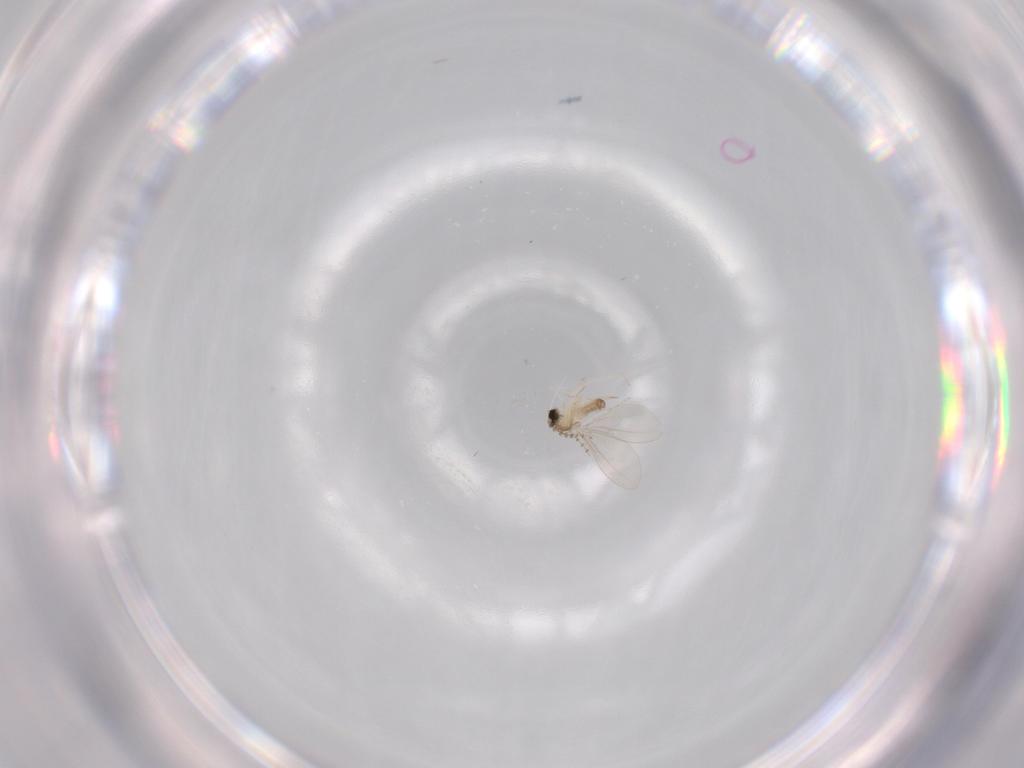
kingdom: Animalia
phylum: Arthropoda
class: Insecta
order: Diptera
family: Cecidomyiidae
